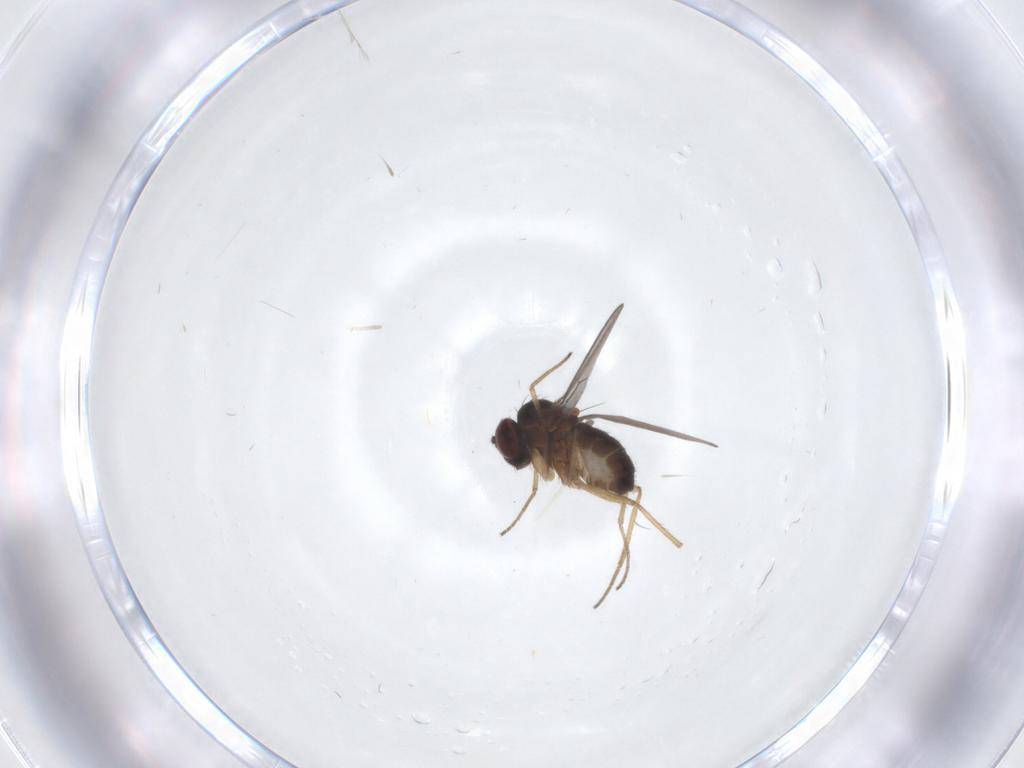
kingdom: Animalia
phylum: Arthropoda
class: Insecta
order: Diptera
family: Dolichopodidae
